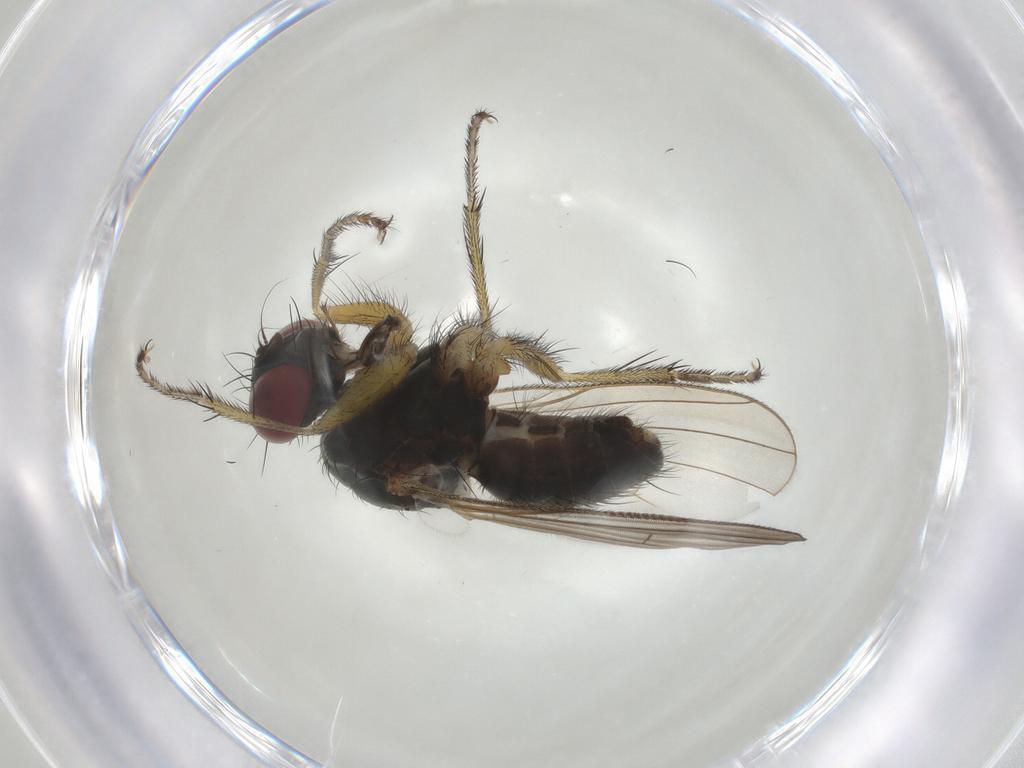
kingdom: Animalia
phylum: Arthropoda
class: Insecta
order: Diptera
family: Muscidae
